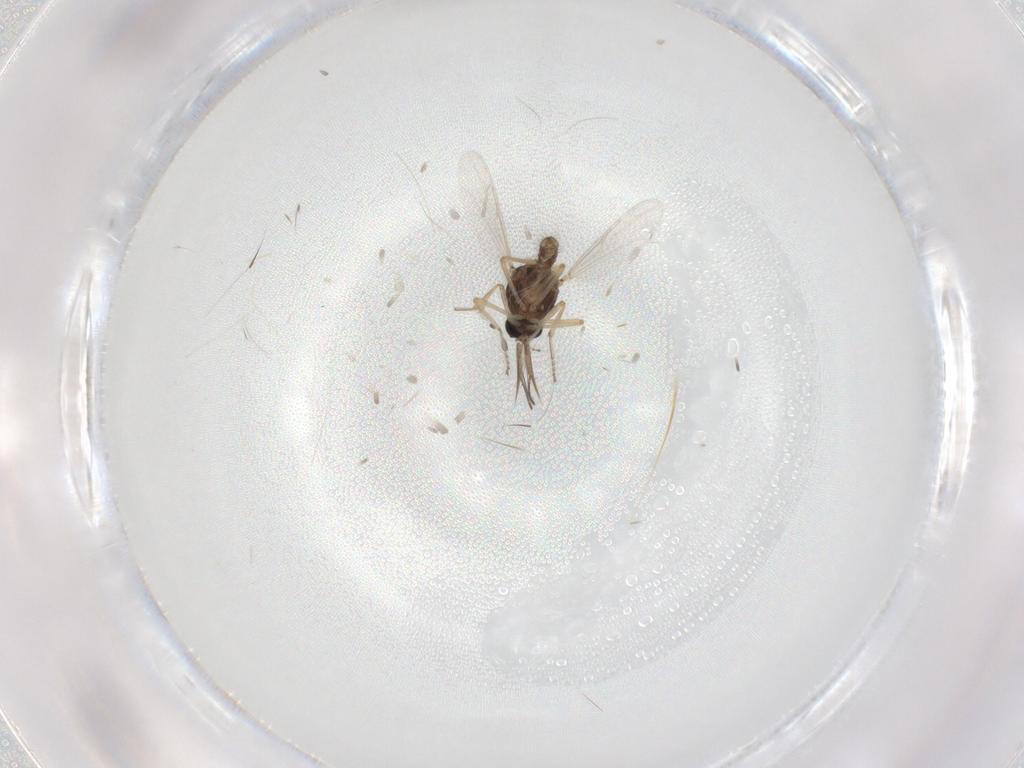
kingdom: Animalia
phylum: Arthropoda
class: Insecta
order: Diptera
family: Ceratopogonidae
